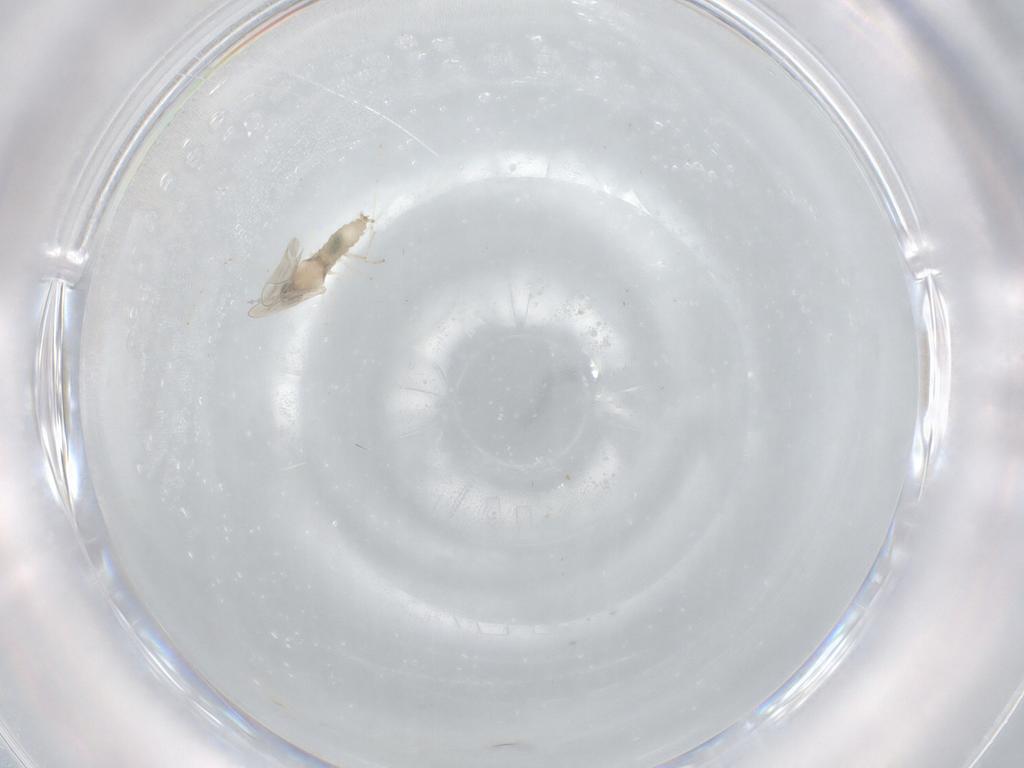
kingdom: Animalia
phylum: Arthropoda
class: Insecta
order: Diptera
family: Cecidomyiidae
